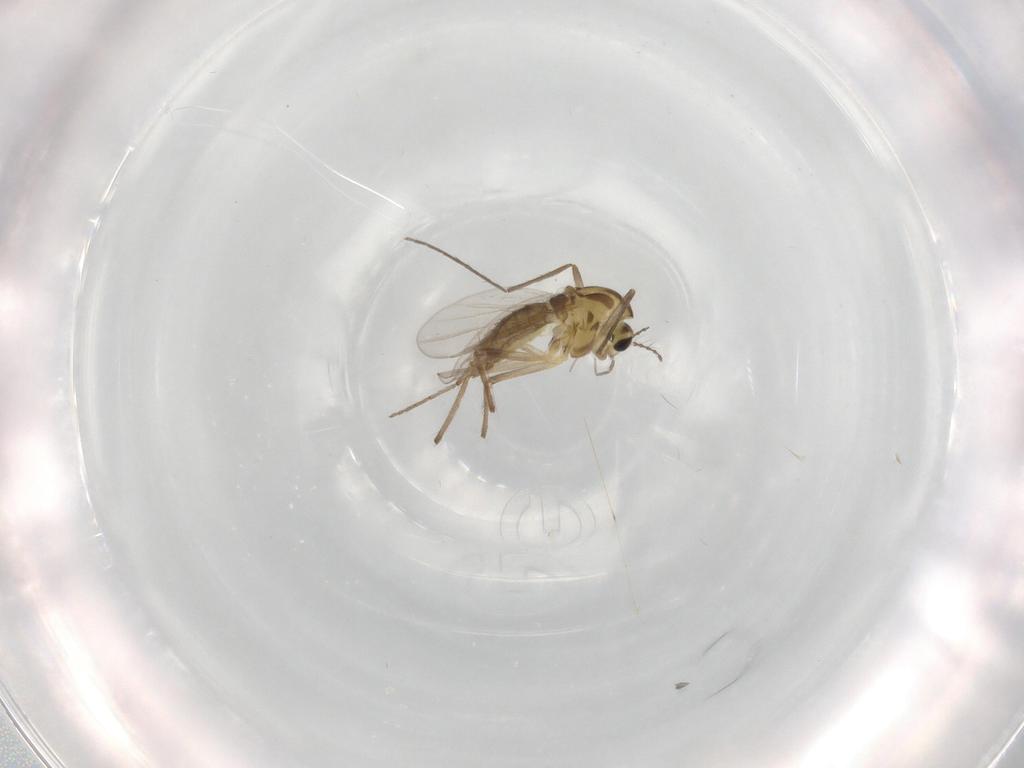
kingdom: Animalia
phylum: Arthropoda
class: Insecta
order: Diptera
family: Chironomidae
